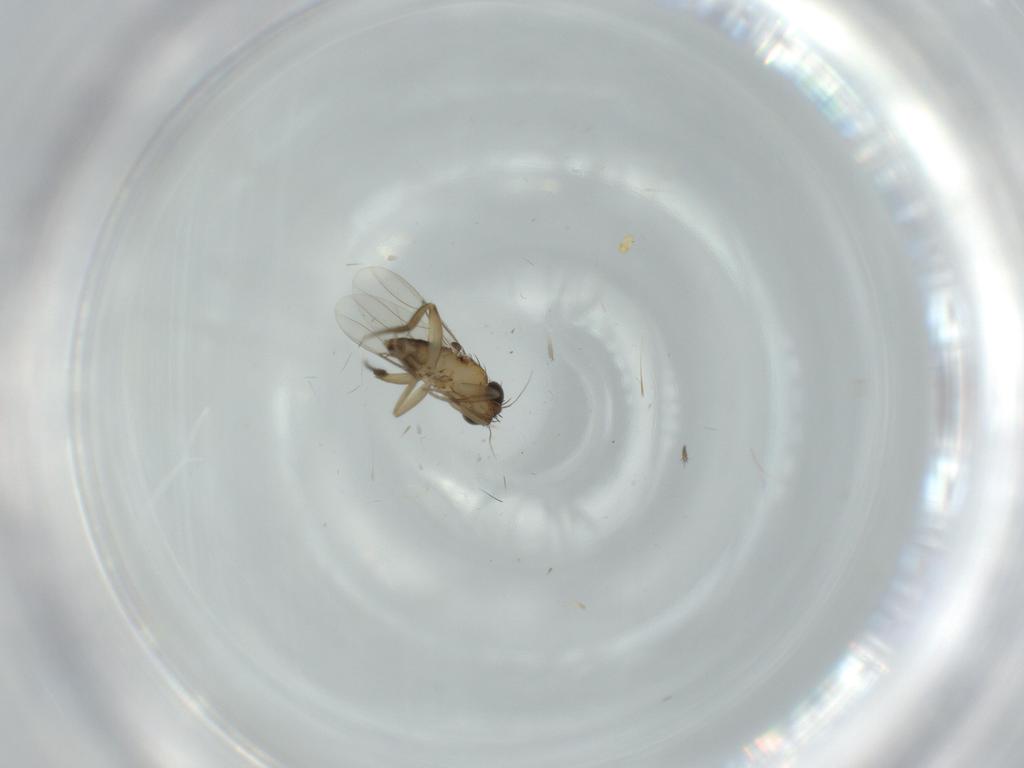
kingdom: Animalia
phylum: Arthropoda
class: Insecta
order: Diptera
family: Phoridae
